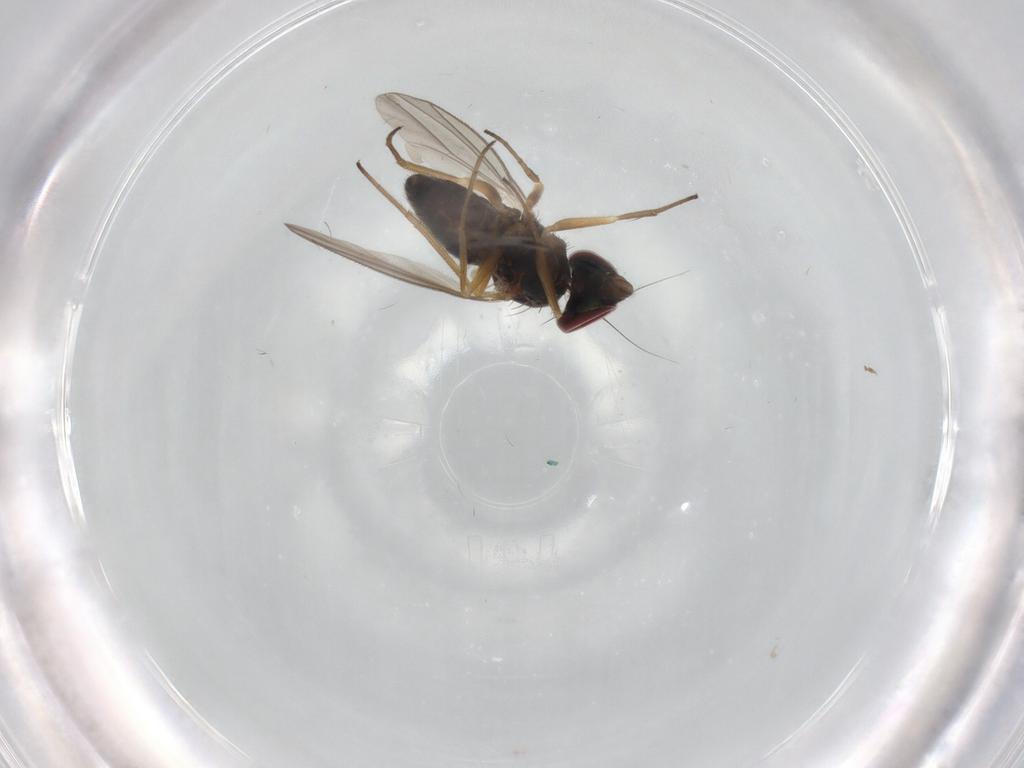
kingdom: Animalia
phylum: Arthropoda
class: Insecta
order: Diptera
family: Dolichopodidae
